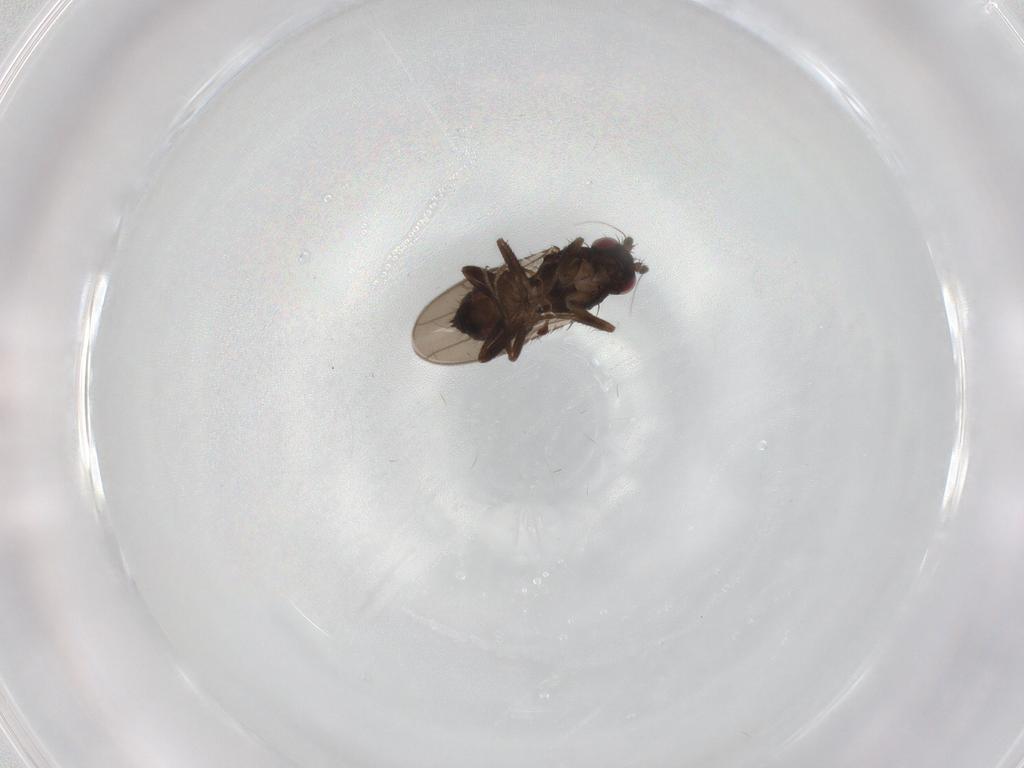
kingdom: Animalia
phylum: Arthropoda
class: Insecta
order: Diptera
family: Sphaeroceridae
